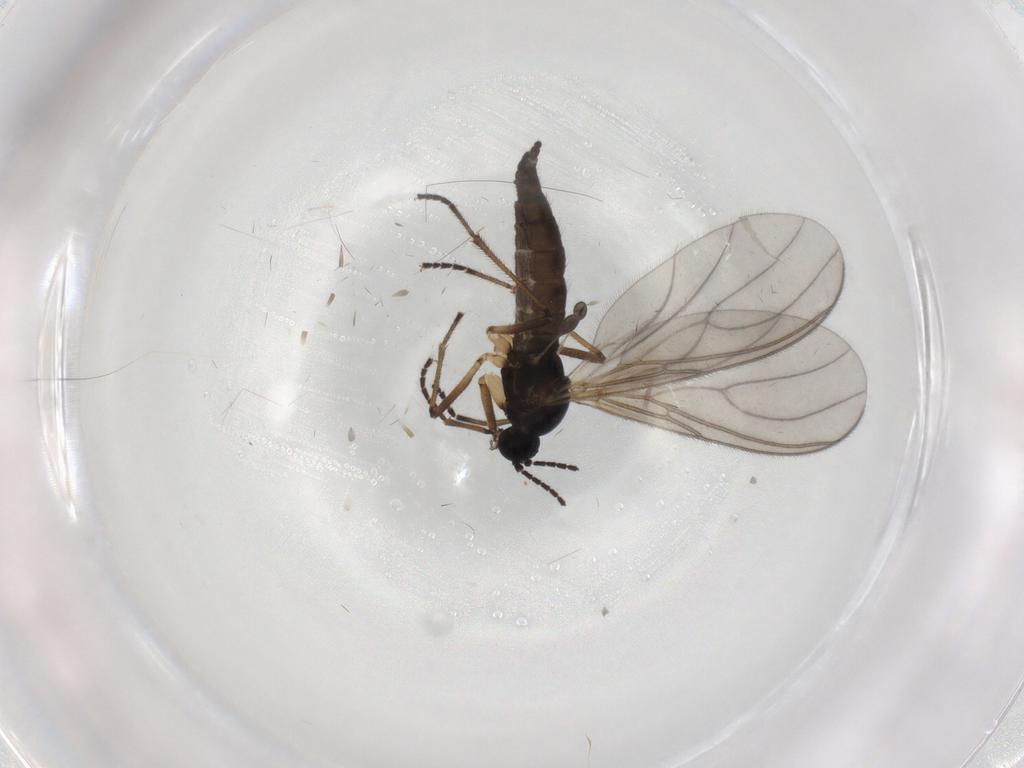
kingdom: Animalia
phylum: Arthropoda
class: Insecta
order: Diptera
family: Sciaridae
